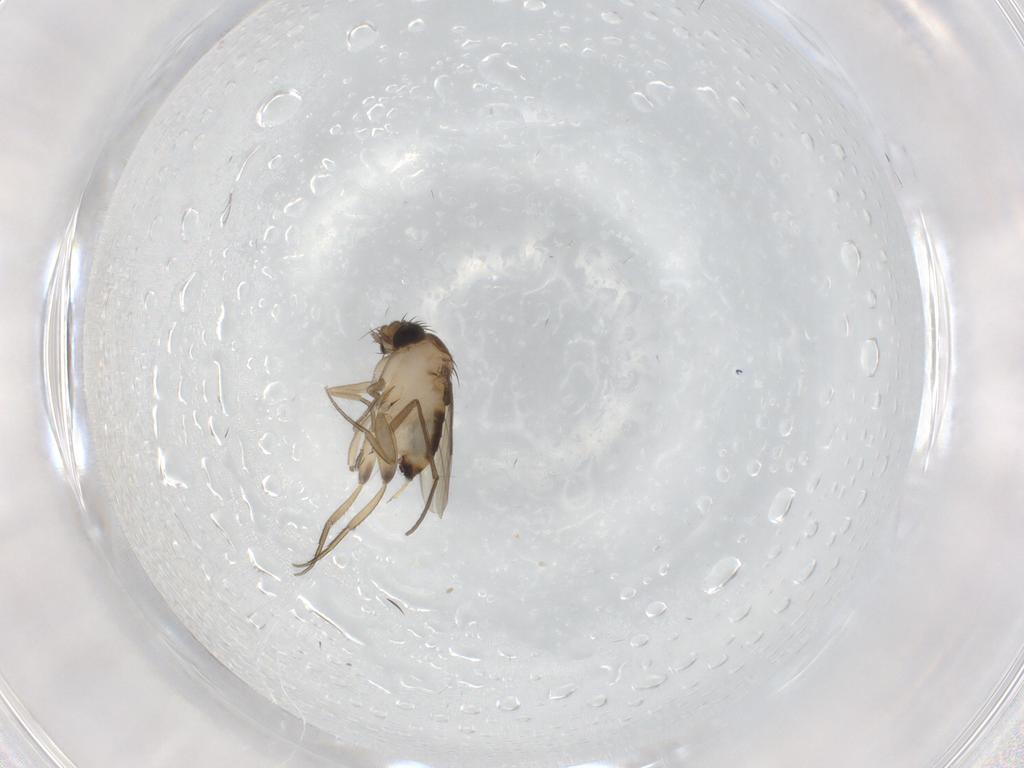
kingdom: Animalia
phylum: Arthropoda
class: Insecta
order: Diptera
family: Phoridae
